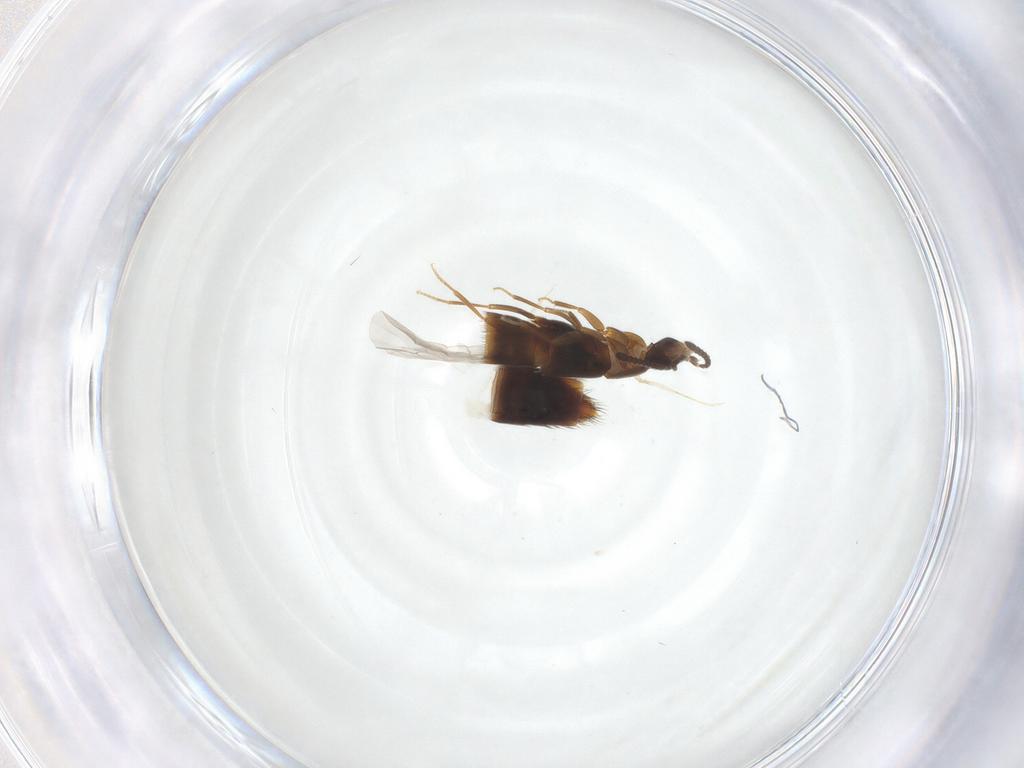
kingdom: Animalia
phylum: Arthropoda
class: Insecta
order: Coleoptera
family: Staphylinidae
